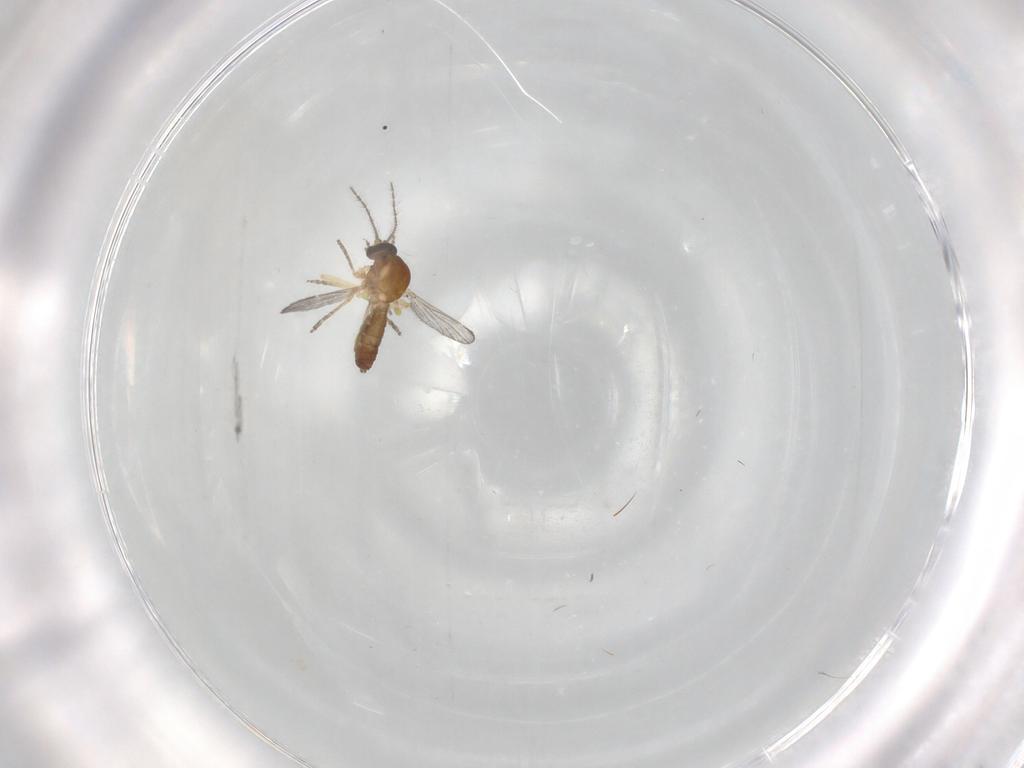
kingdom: Animalia
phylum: Arthropoda
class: Insecta
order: Diptera
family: Ceratopogonidae
